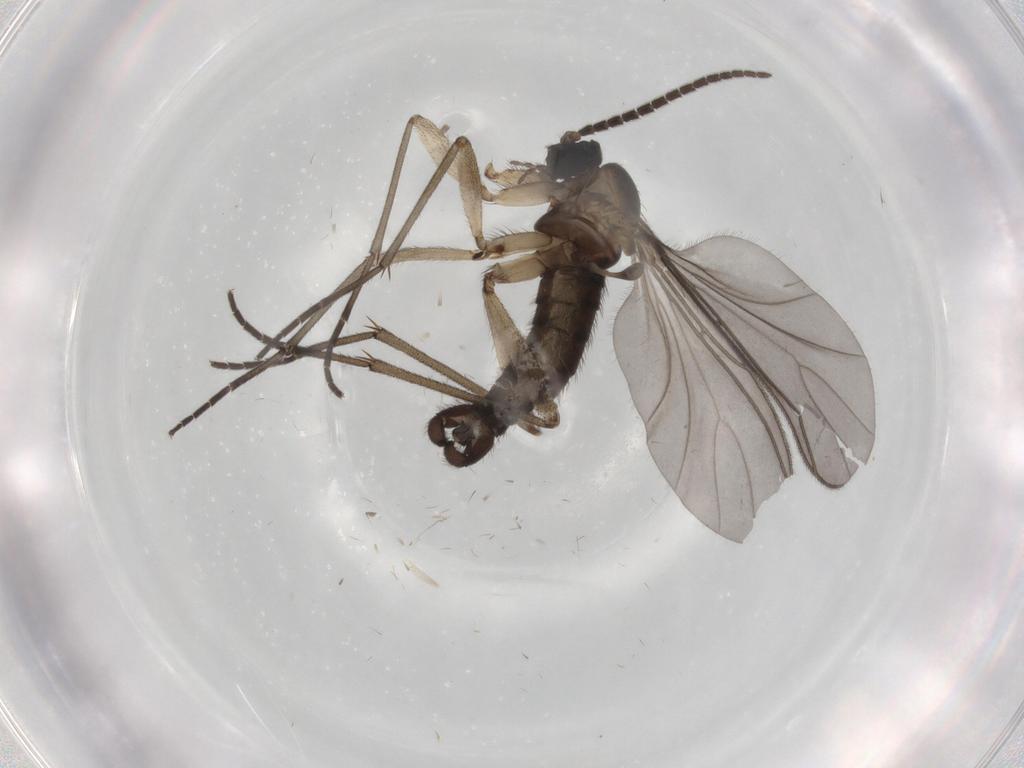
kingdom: Animalia
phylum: Arthropoda
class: Insecta
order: Diptera
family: Sciaridae
